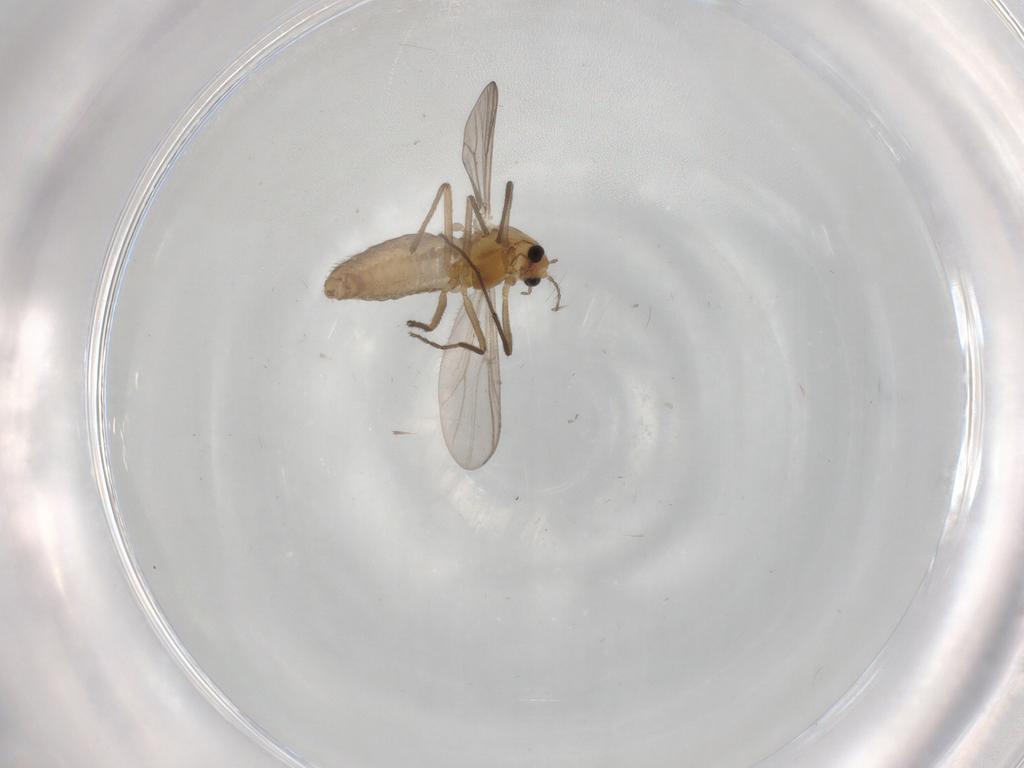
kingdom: Animalia
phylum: Arthropoda
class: Insecta
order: Diptera
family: Chironomidae
